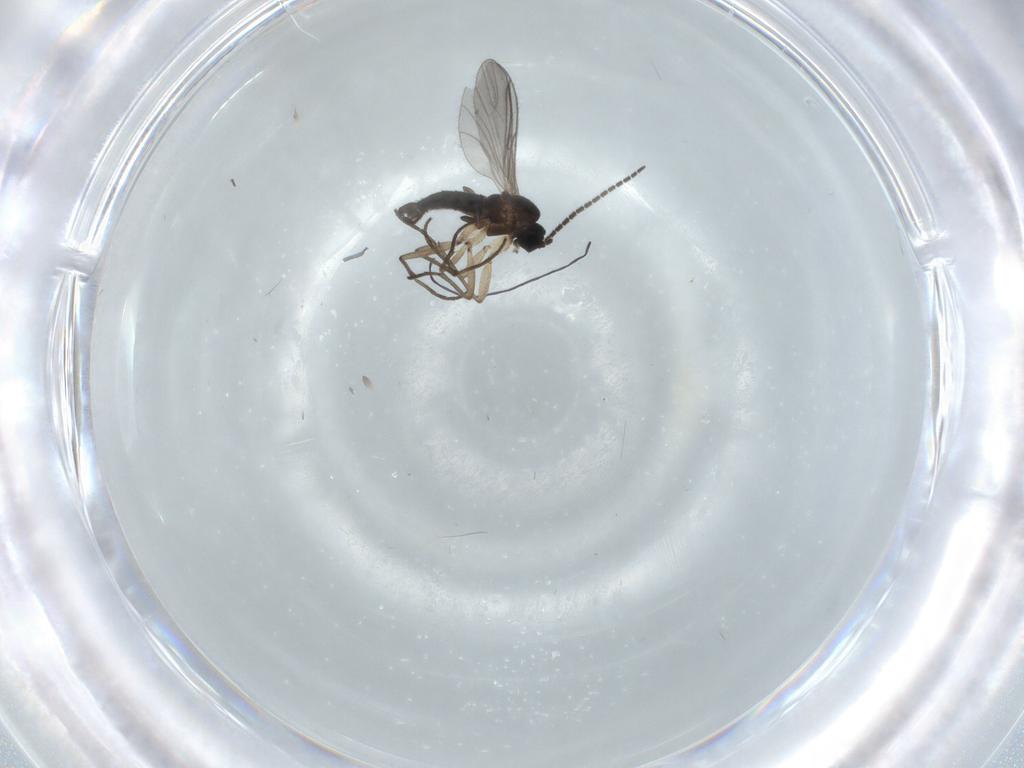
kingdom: Animalia
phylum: Arthropoda
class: Insecta
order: Diptera
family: Sciaridae
